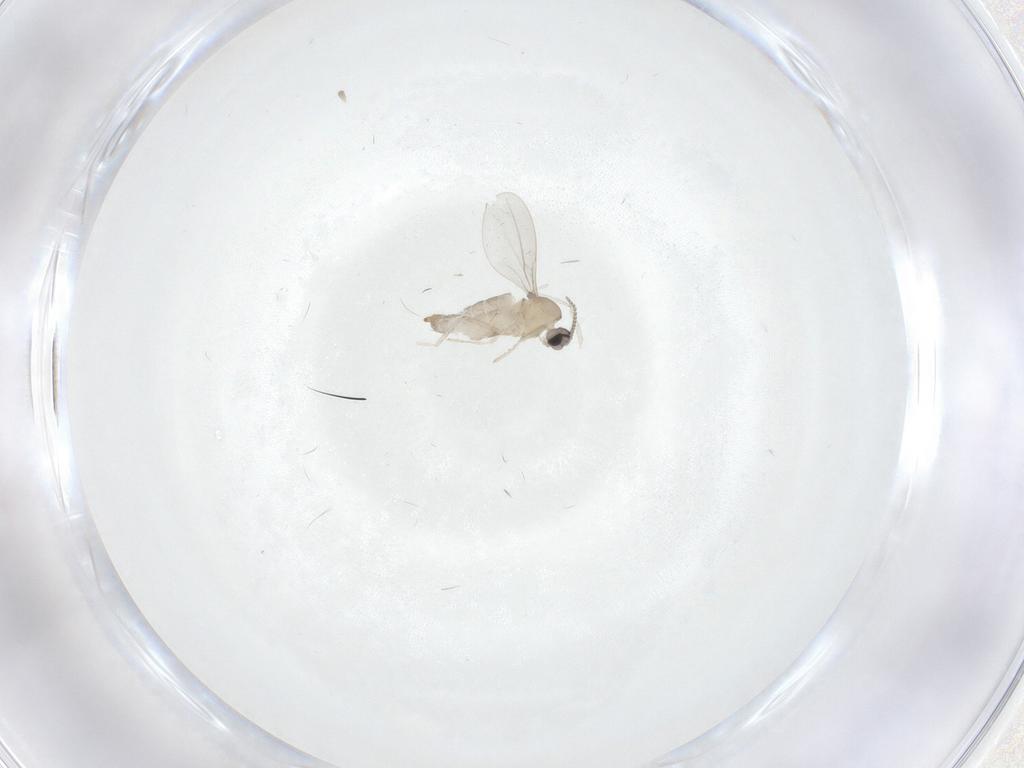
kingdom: Animalia
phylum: Arthropoda
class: Insecta
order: Diptera
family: Cecidomyiidae
